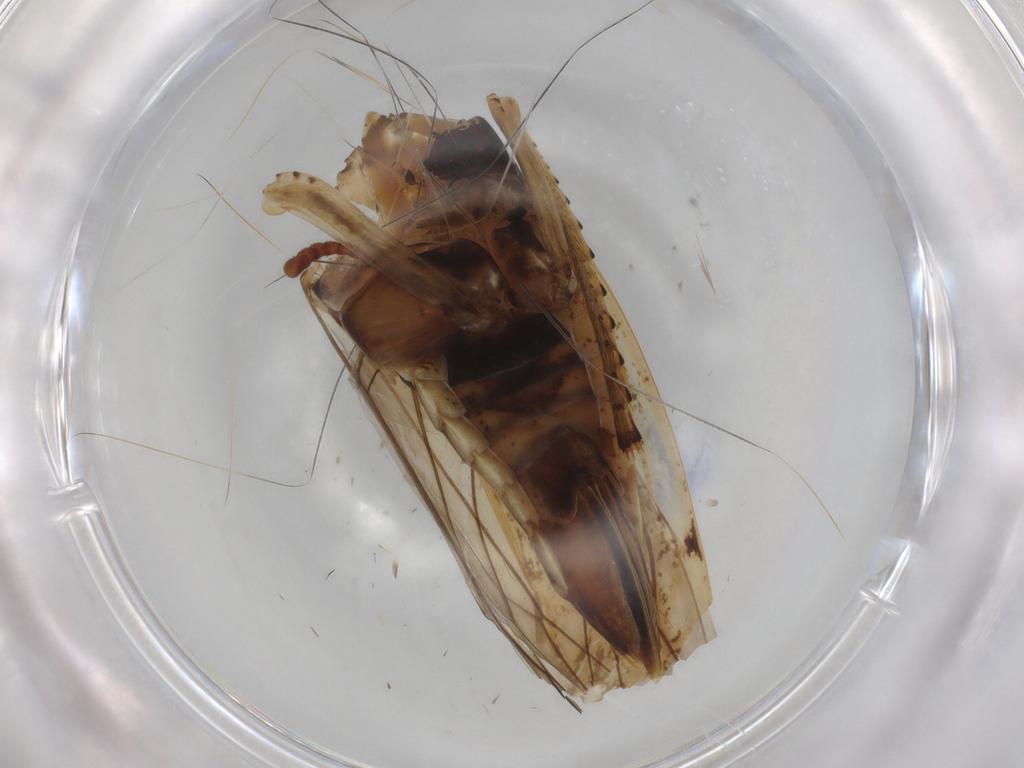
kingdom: Animalia
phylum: Arthropoda
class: Insecta
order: Hemiptera
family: Cicadellidae
